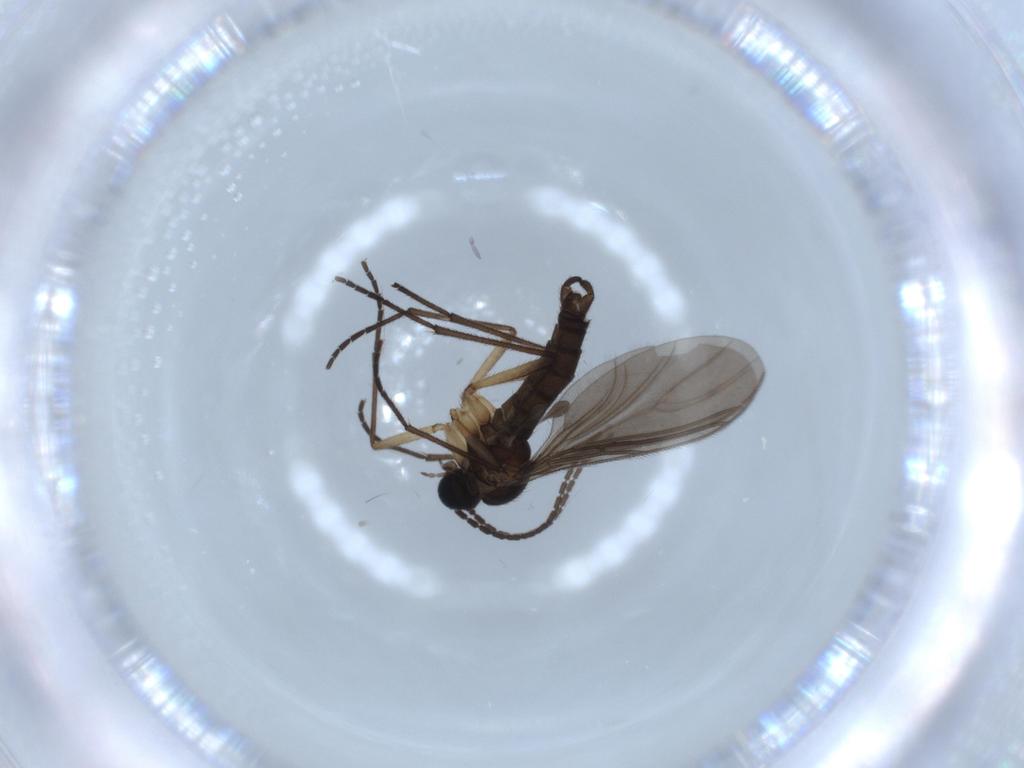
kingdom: Animalia
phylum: Arthropoda
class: Insecta
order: Diptera
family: Sciaridae
